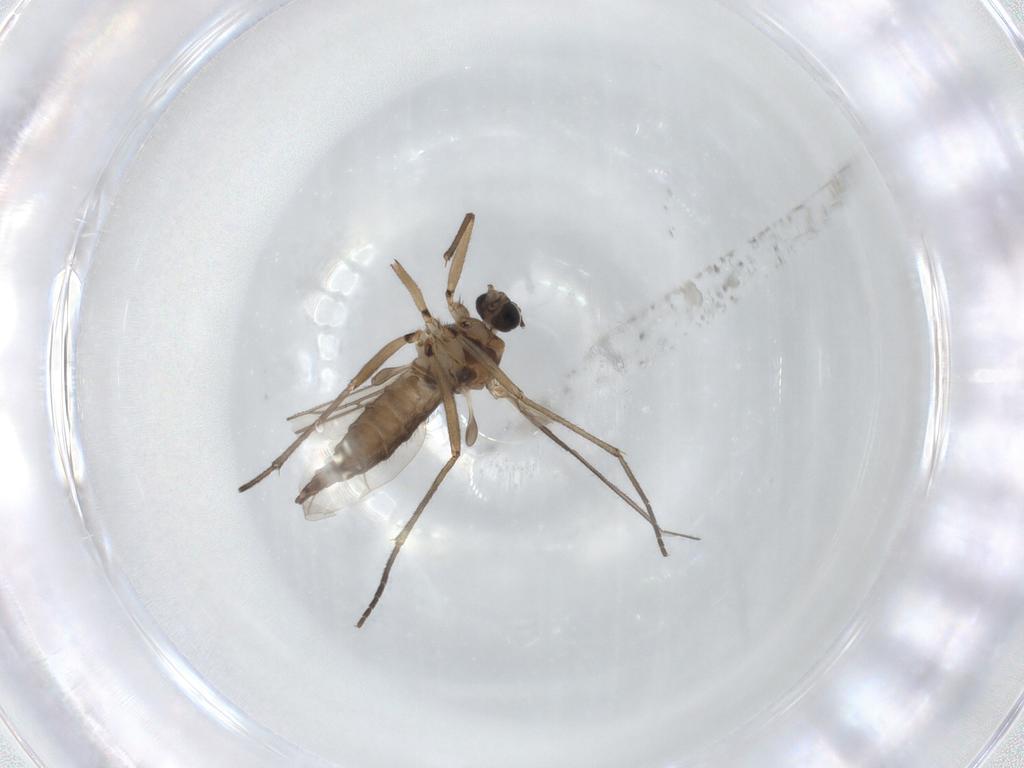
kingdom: Animalia
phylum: Arthropoda
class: Insecta
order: Diptera
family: Sciaridae
